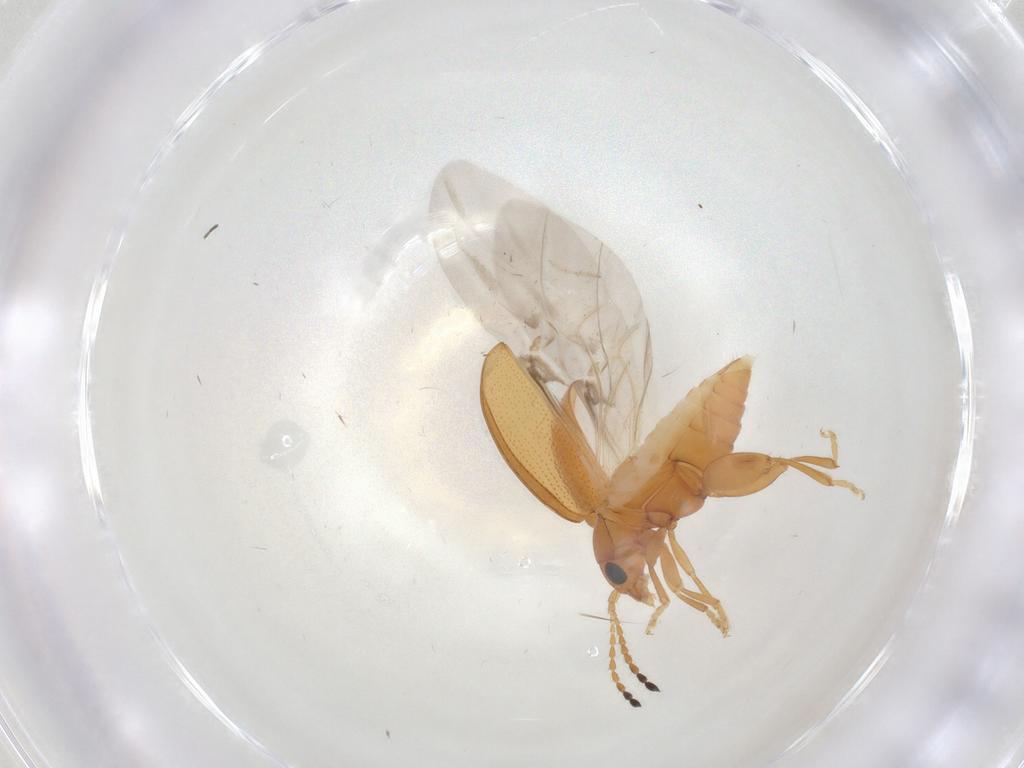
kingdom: Animalia
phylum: Arthropoda
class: Insecta
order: Coleoptera
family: Chrysomelidae
